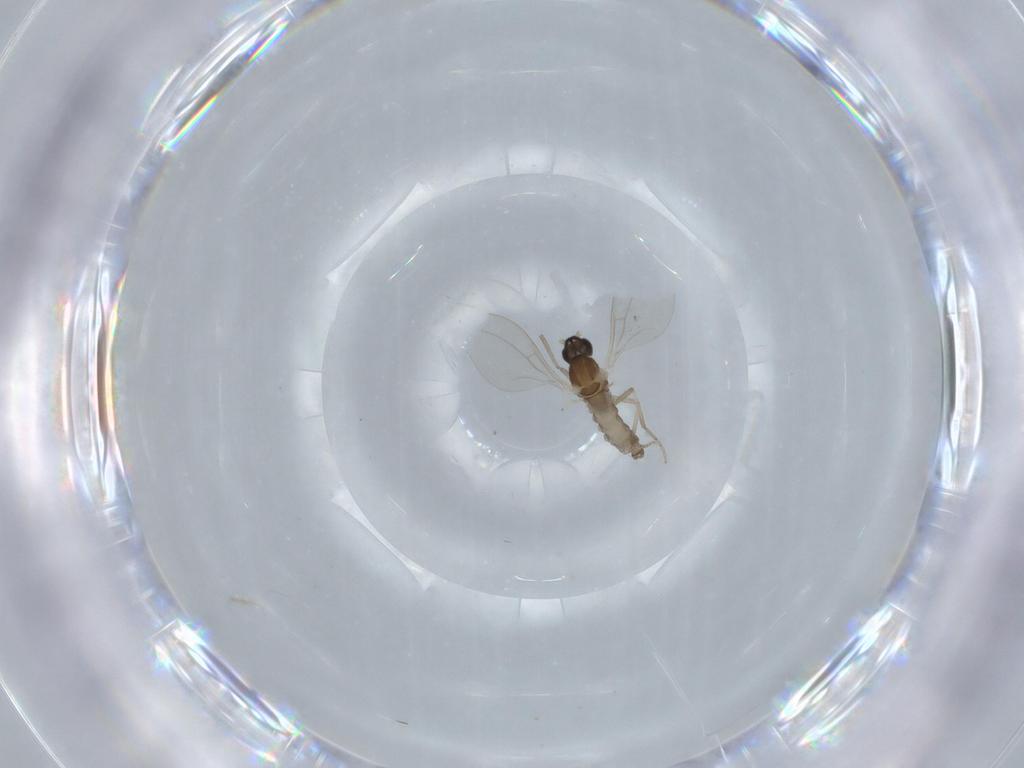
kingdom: Animalia
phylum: Arthropoda
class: Insecta
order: Diptera
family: Cecidomyiidae
